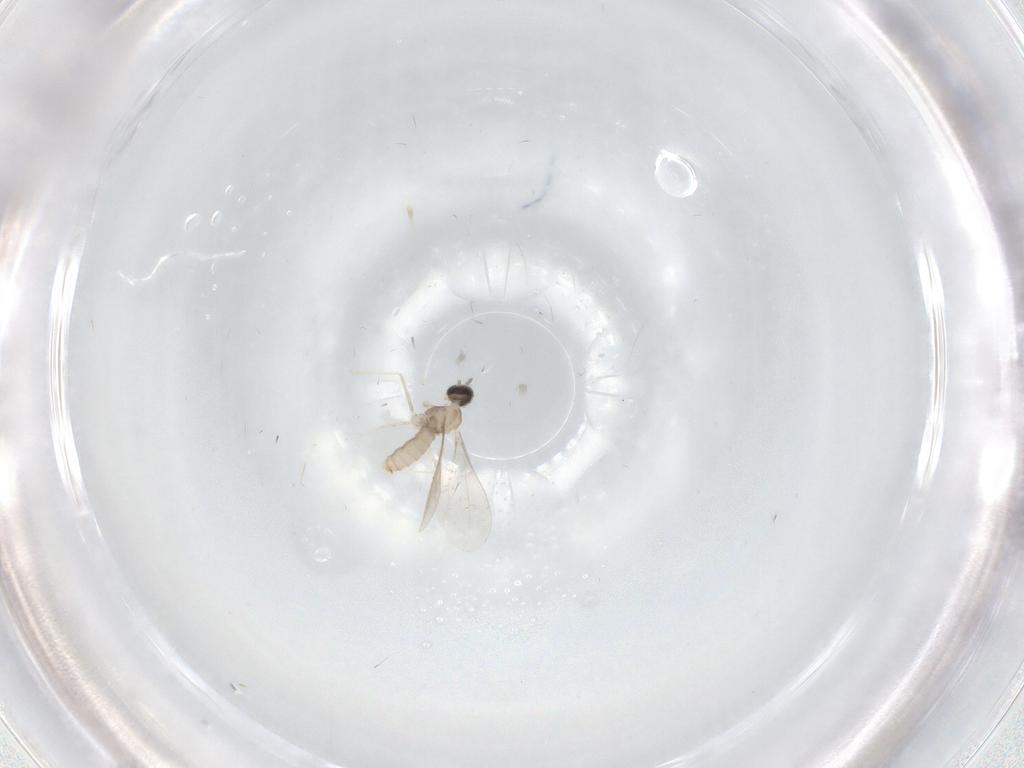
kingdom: Animalia
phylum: Arthropoda
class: Insecta
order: Diptera
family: Cecidomyiidae
